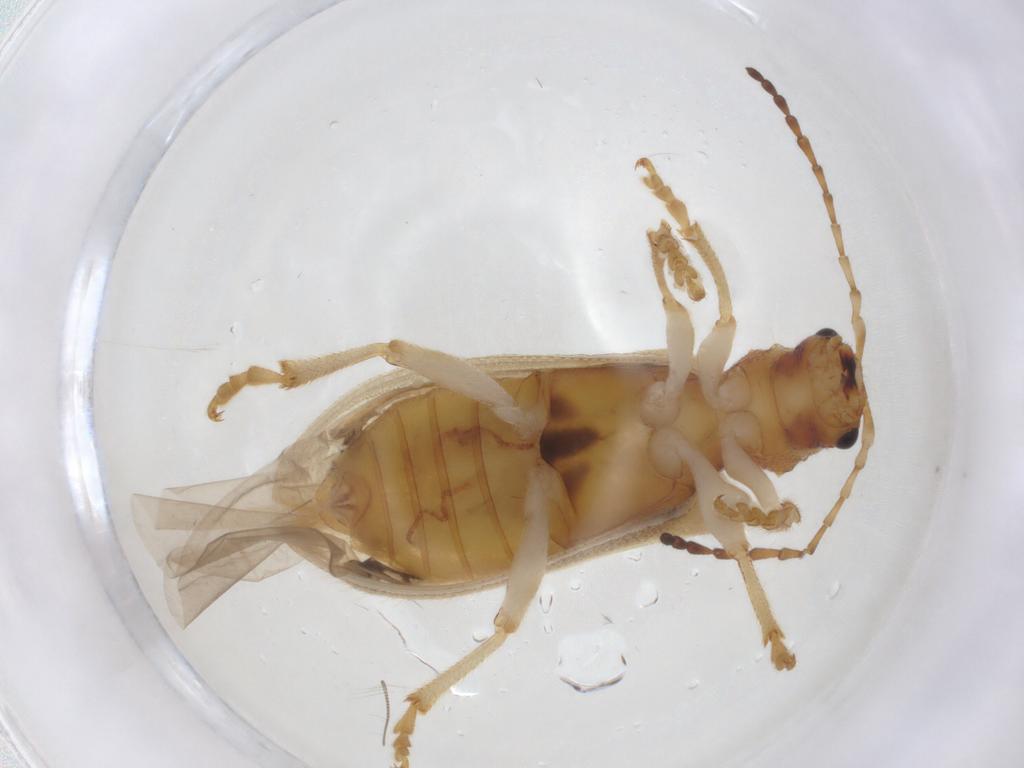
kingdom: Animalia
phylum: Arthropoda
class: Insecta
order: Coleoptera
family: Chrysomelidae
